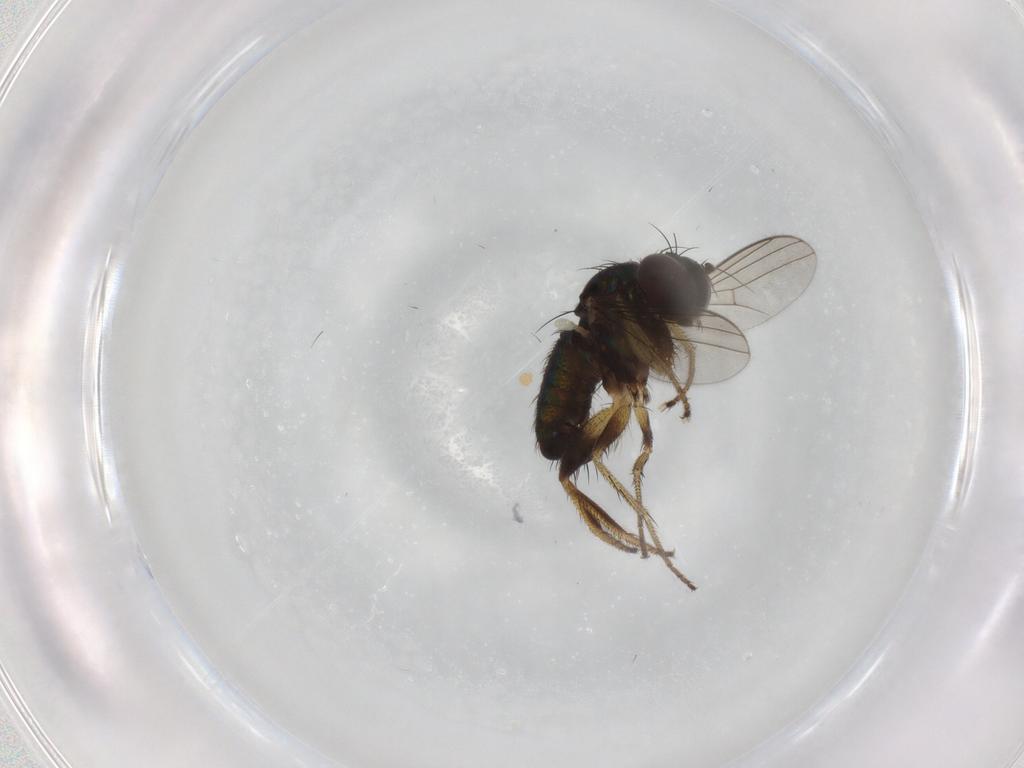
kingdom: Animalia
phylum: Arthropoda
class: Insecta
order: Diptera
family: Dolichopodidae
